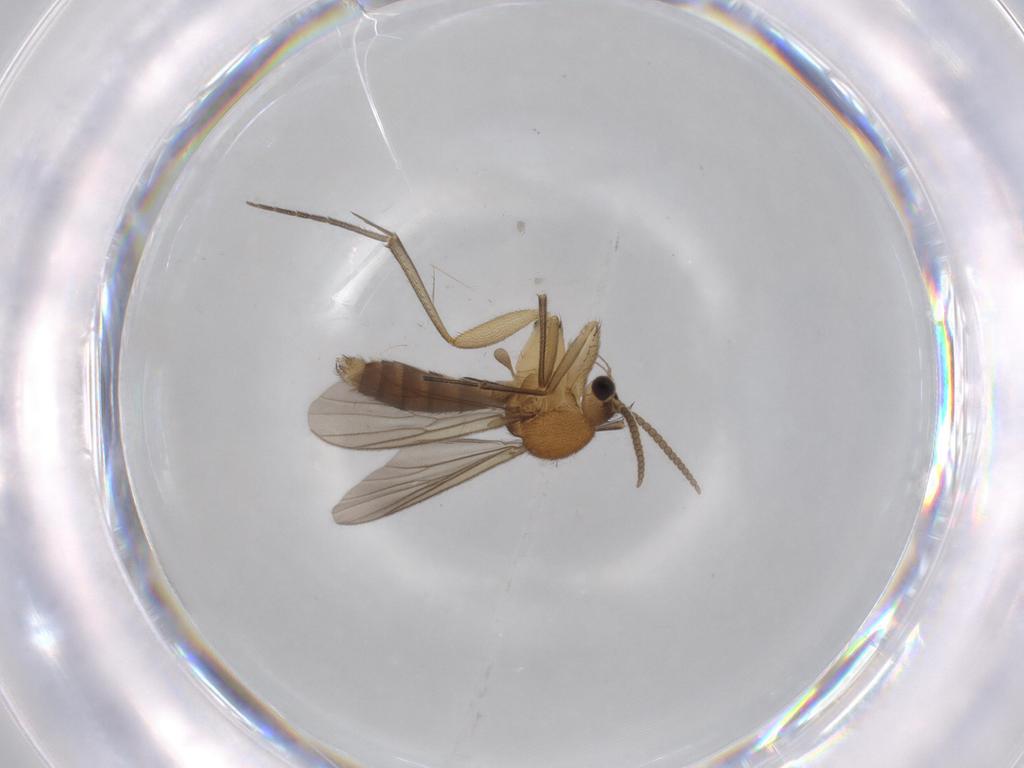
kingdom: Animalia
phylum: Arthropoda
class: Insecta
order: Diptera
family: Mycetophilidae
